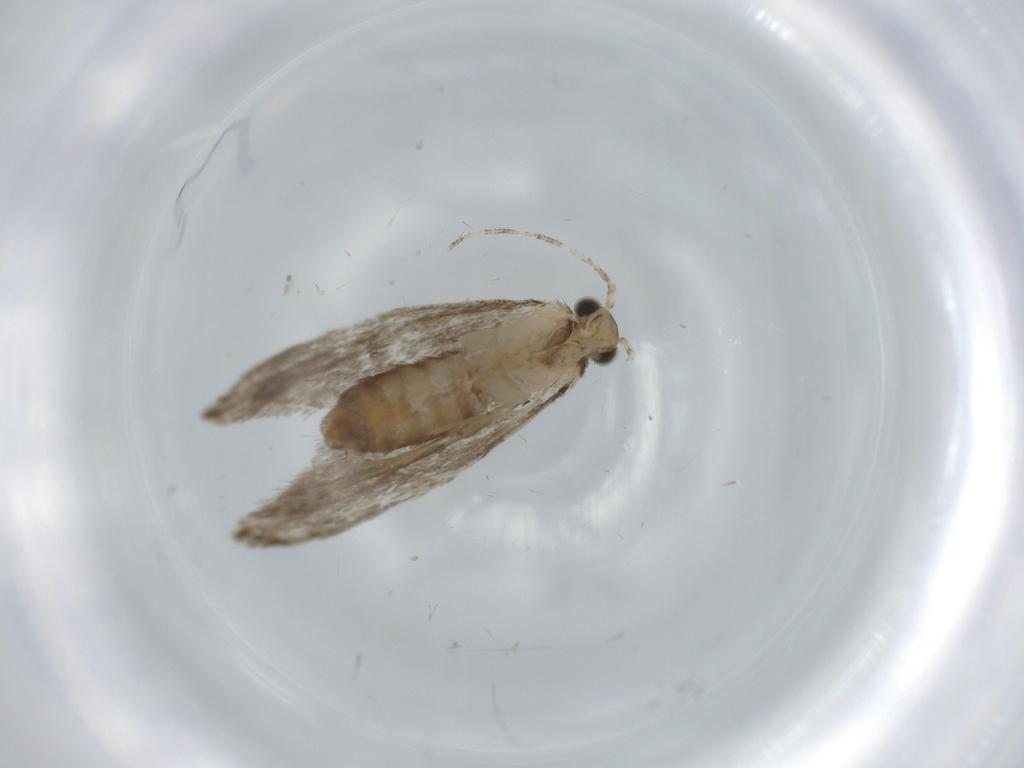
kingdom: Animalia
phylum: Arthropoda
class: Insecta
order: Lepidoptera
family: Tineidae
